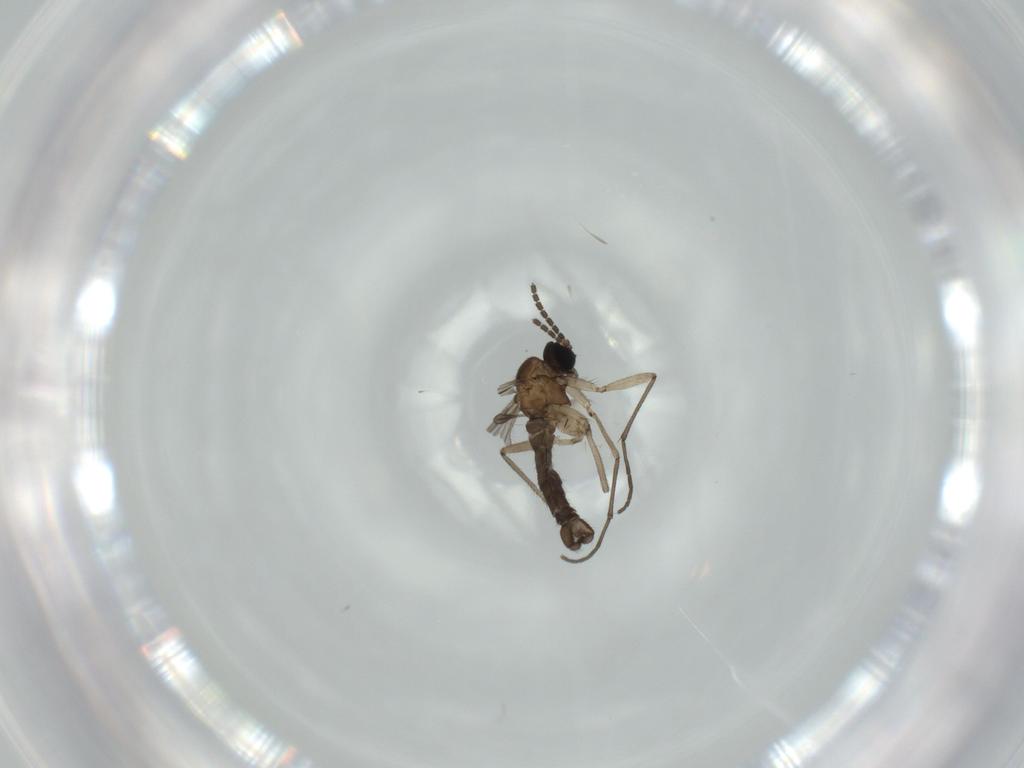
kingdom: Animalia
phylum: Arthropoda
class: Insecta
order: Diptera
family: Sciaridae
